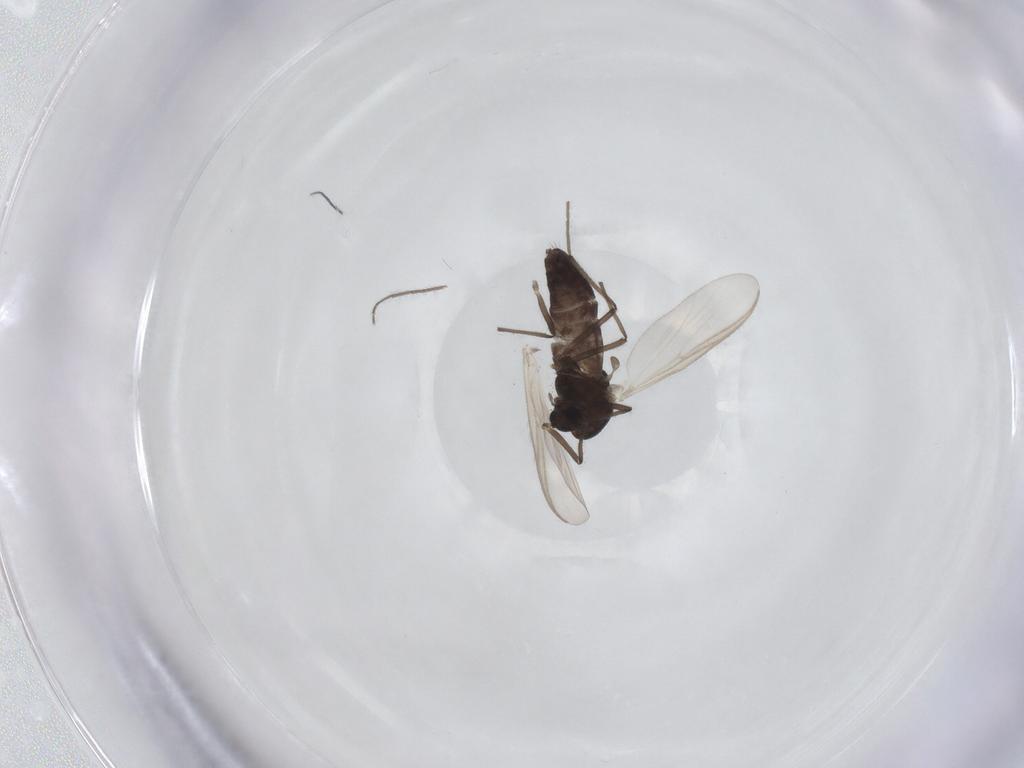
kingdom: Animalia
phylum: Arthropoda
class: Insecta
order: Diptera
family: Chironomidae
